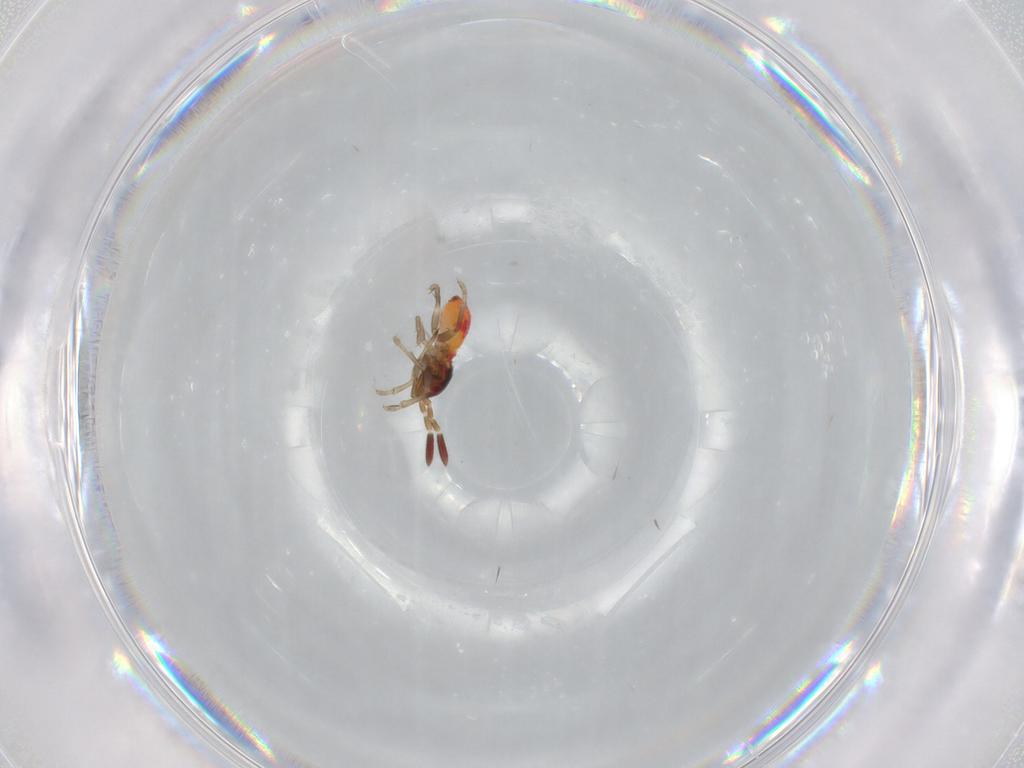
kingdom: Animalia
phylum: Arthropoda
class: Insecta
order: Hemiptera
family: Rhyparochromidae
